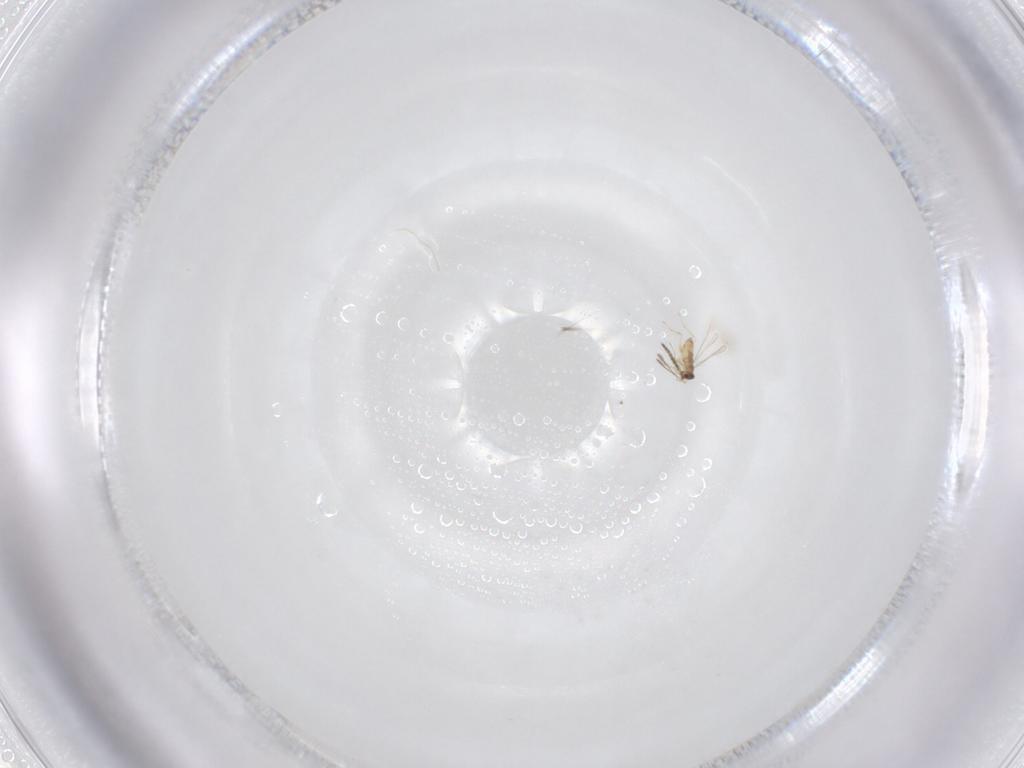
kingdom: Animalia
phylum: Arthropoda
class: Insecta
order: Diptera
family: Sciaridae
